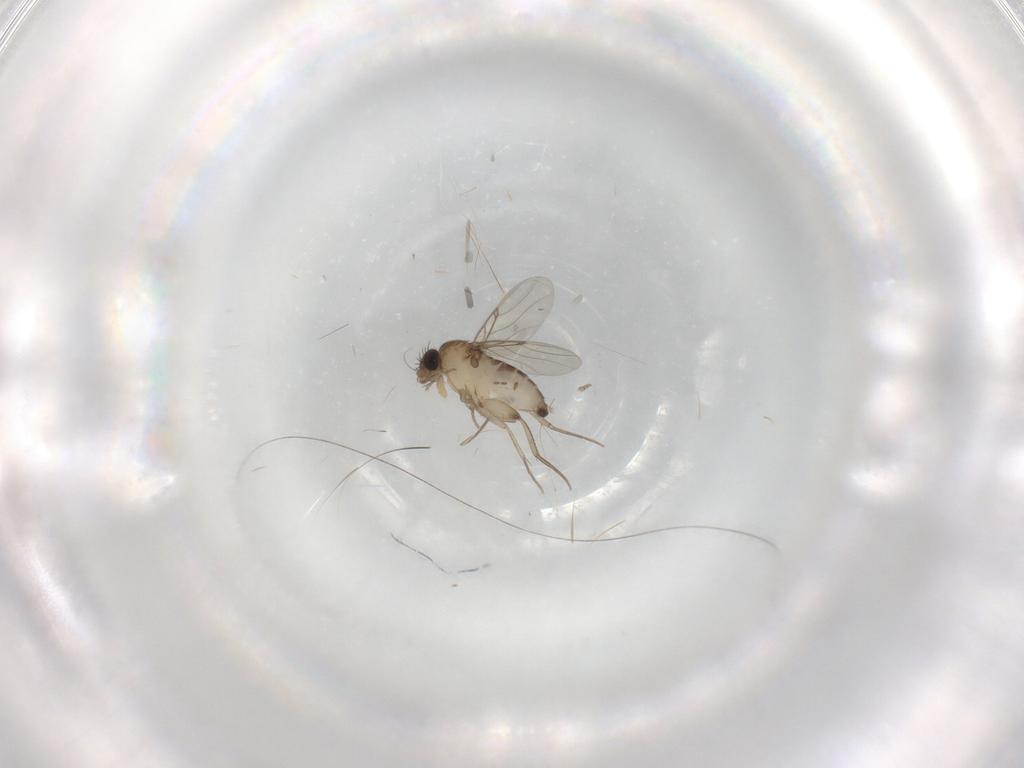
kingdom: Animalia
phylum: Arthropoda
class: Insecta
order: Diptera
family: Phoridae
